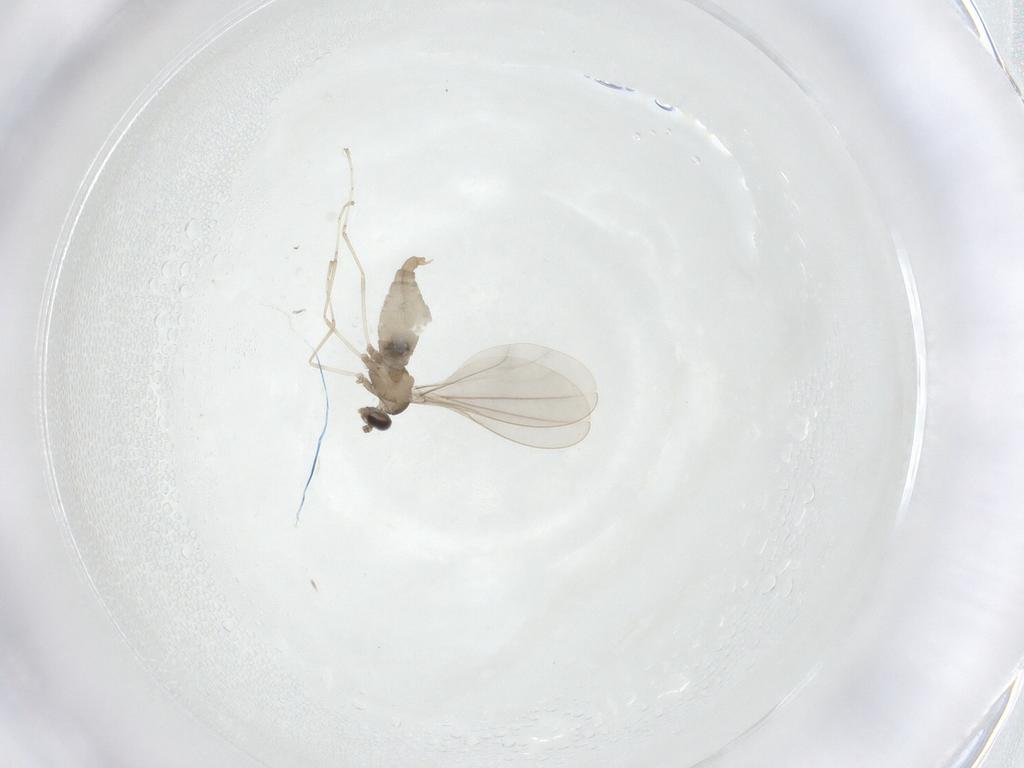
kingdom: Animalia
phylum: Arthropoda
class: Insecta
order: Diptera
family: Cecidomyiidae
